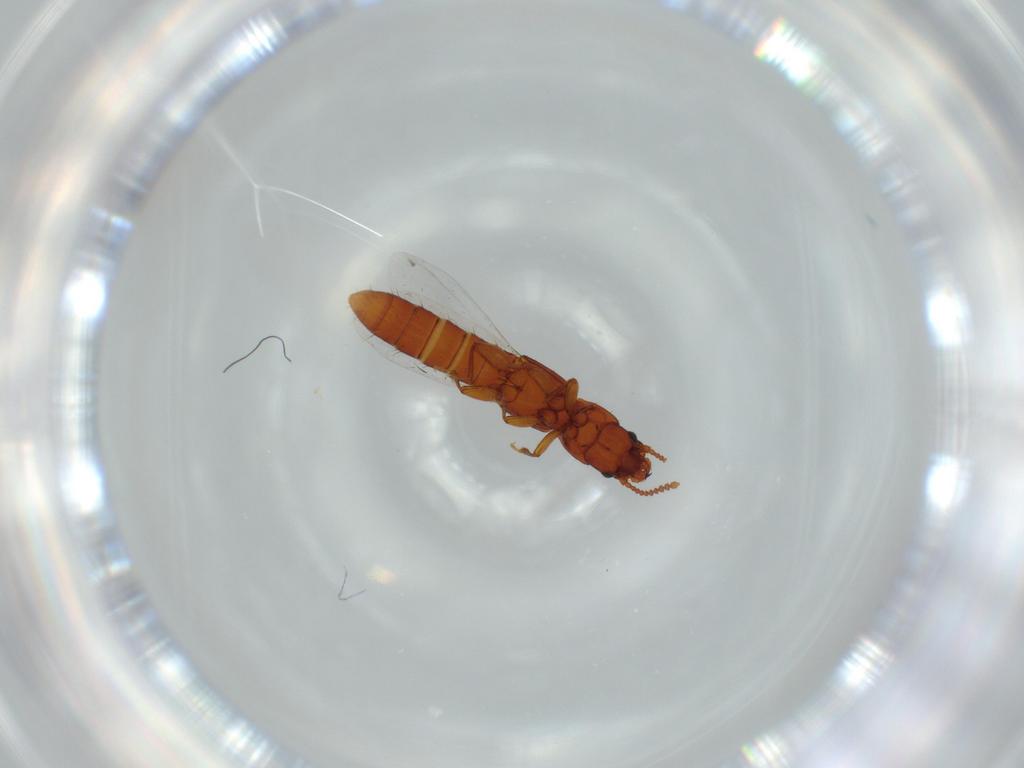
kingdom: Animalia
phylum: Arthropoda
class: Insecta
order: Coleoptera
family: Staphylinidae
